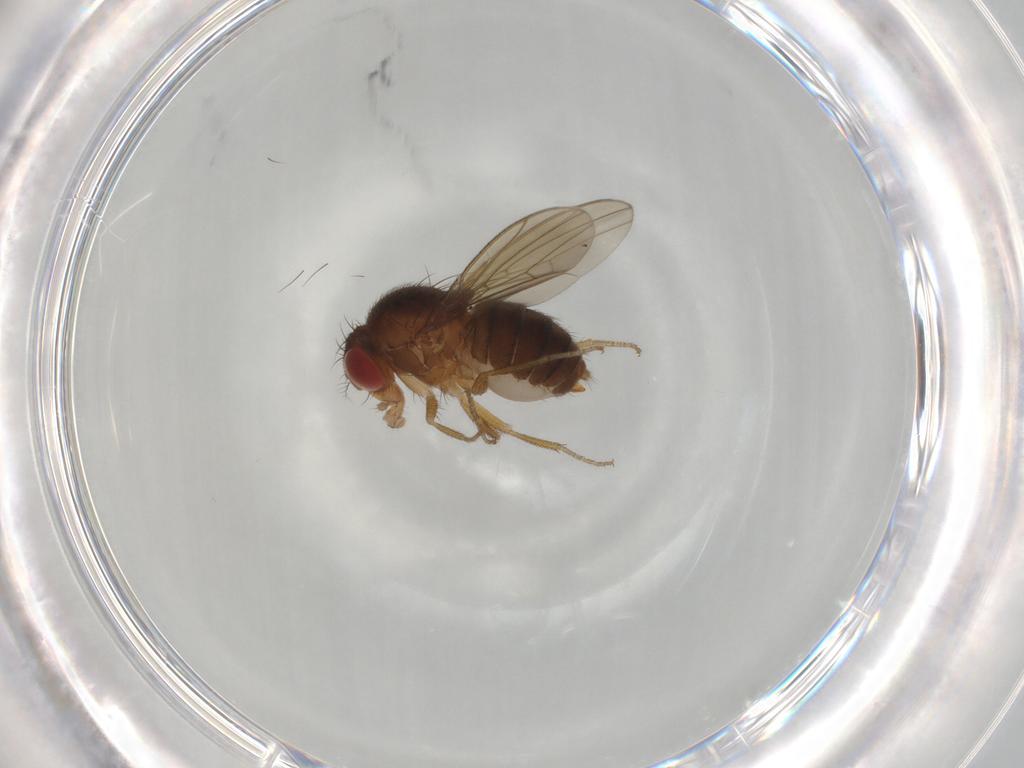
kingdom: Animalia
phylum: Arthropoda
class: Insecta
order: Diptera
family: Drosophilidae
